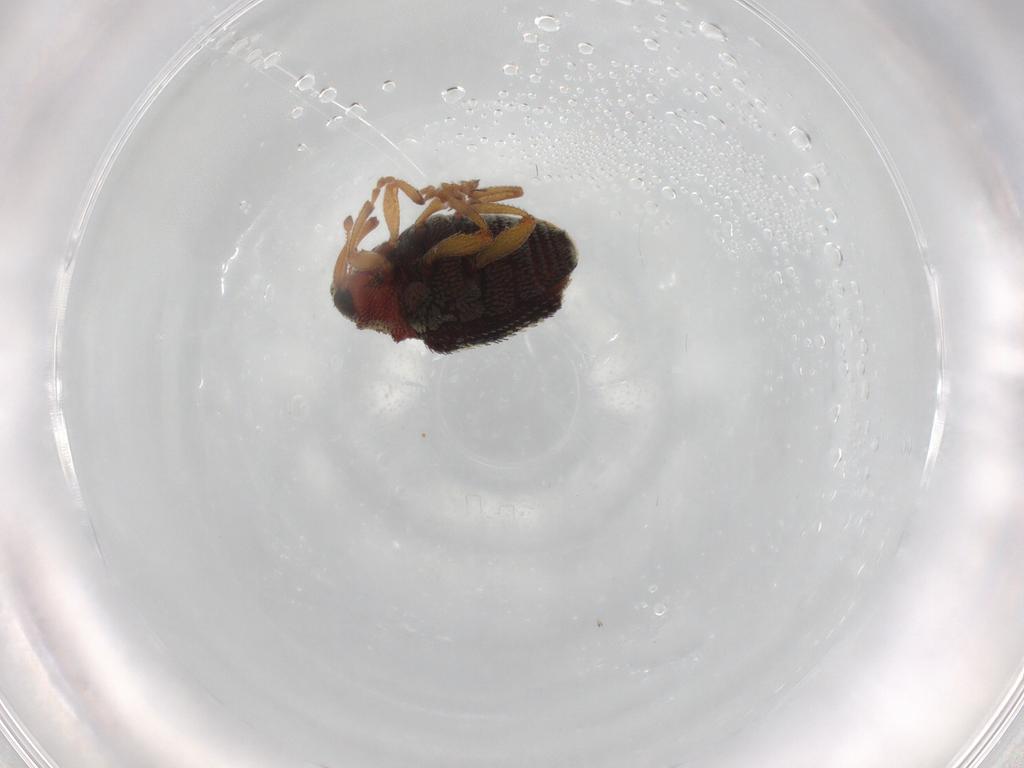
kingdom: Animalia
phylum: Arthropoda
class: Insecta
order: Coleoptera
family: Curculionidae
